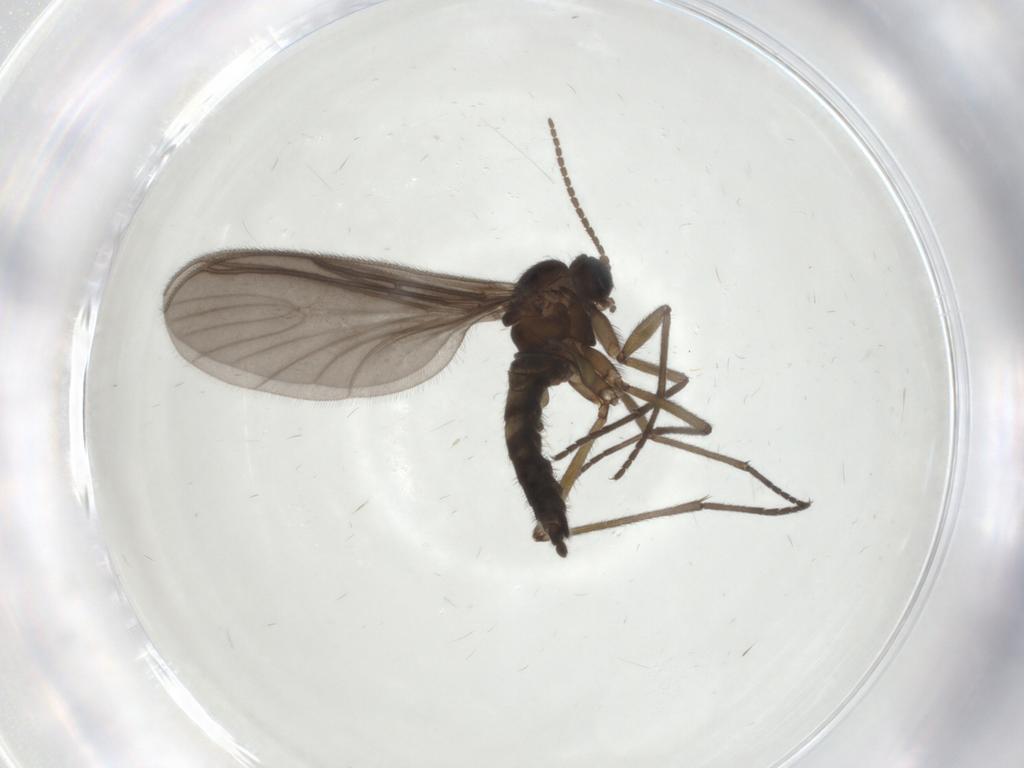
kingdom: Animalia
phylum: Arthropoda
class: Insecta
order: Diptera
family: Sciaridae
